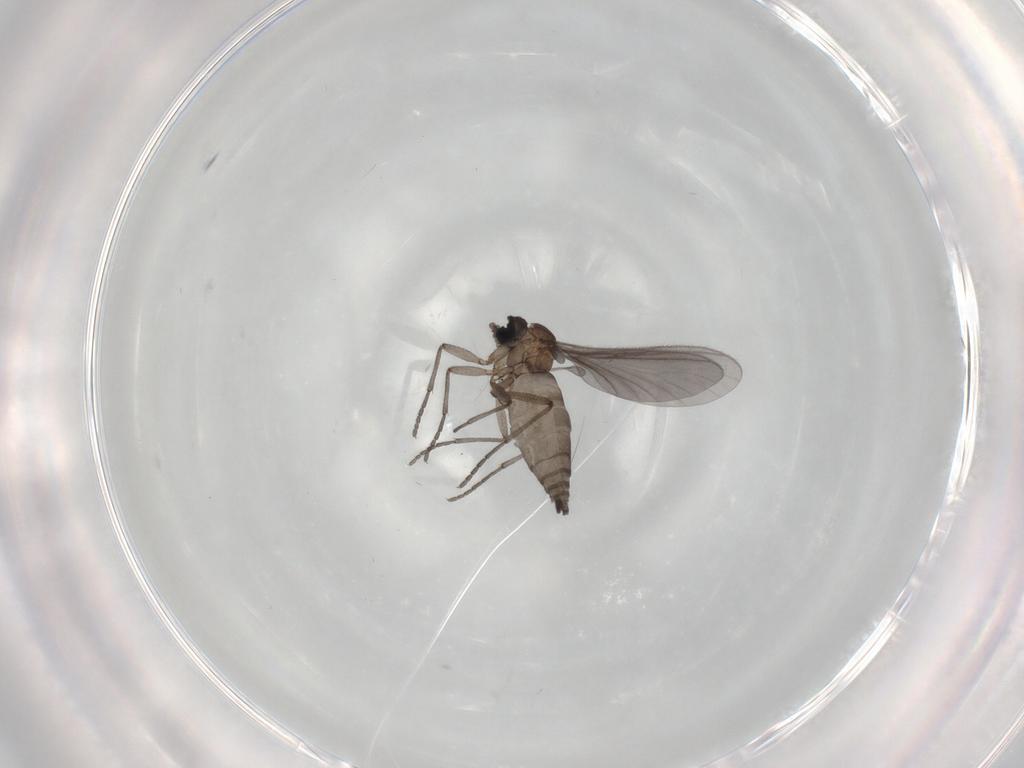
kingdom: Animalia
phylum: Arthropoda
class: Insecta
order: Diptera
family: Sciaridae
